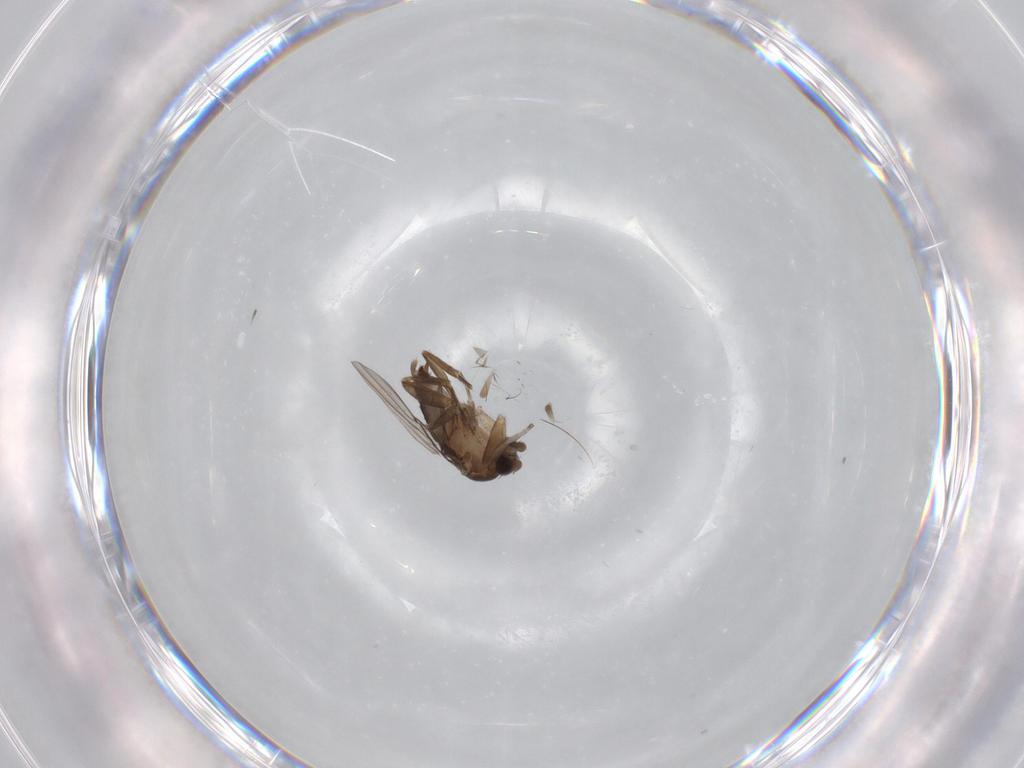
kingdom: Animalia
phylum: Arthropoda
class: Insecta
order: Diptera
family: Phoridae
